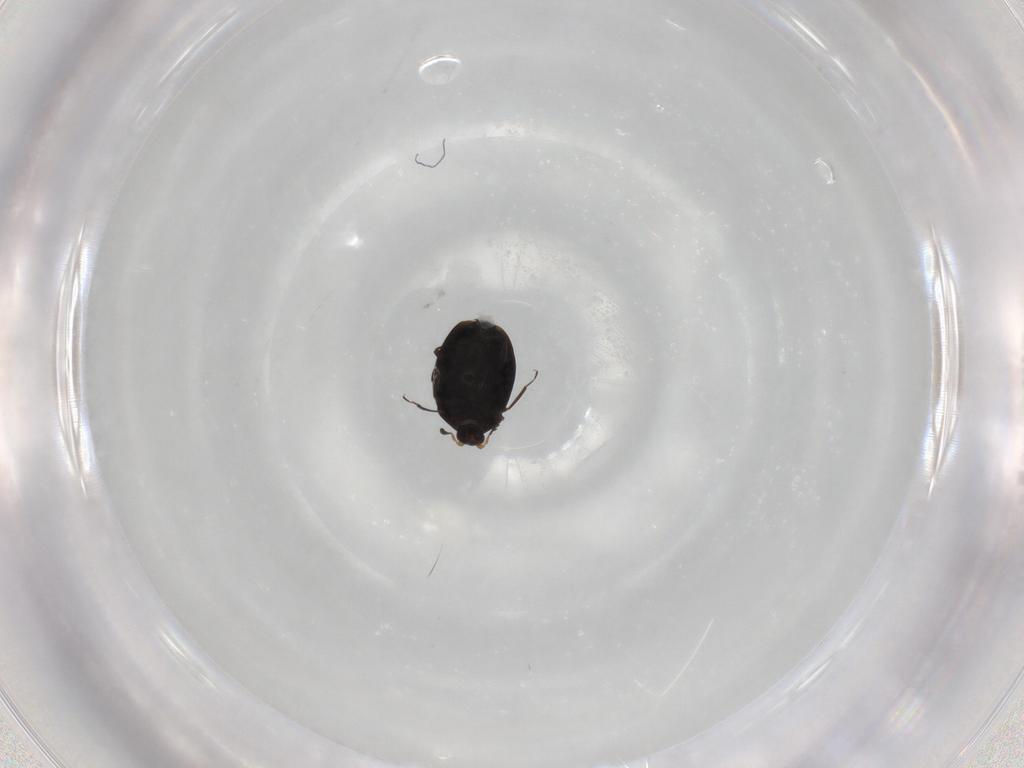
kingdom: Animalia
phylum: Arthropoda
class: Insecta
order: Coleoptera
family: Corylophidae
